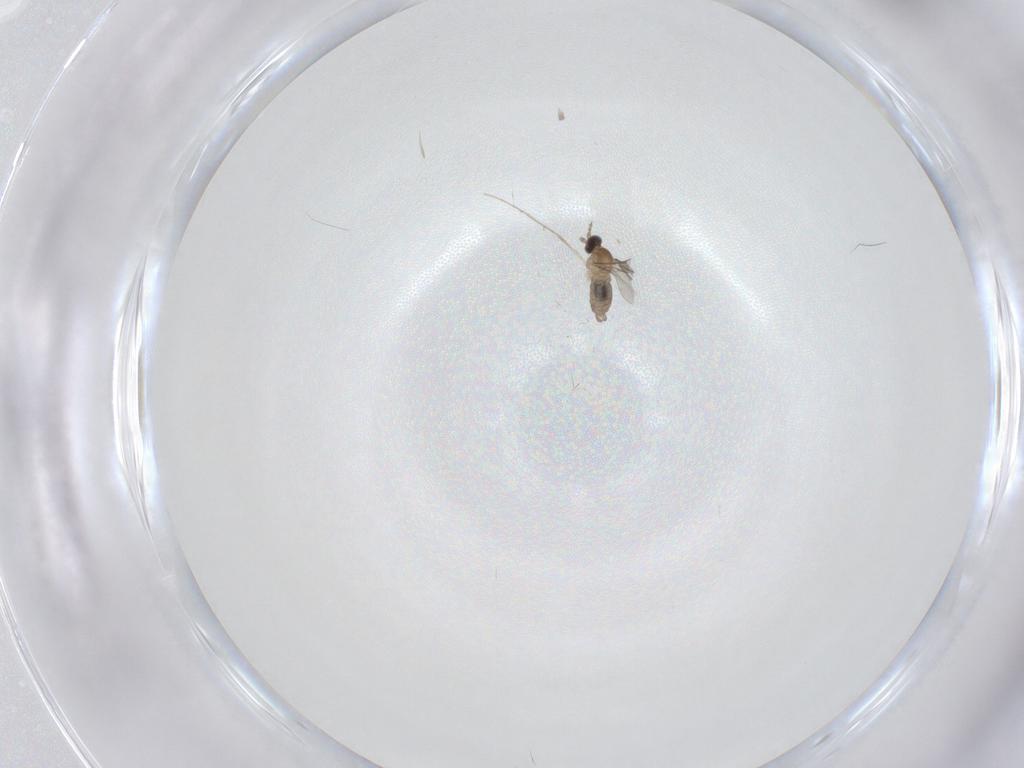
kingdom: Animalia
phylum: Arthropoda
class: Insecta
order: Diptera
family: Cecidomyiidae
